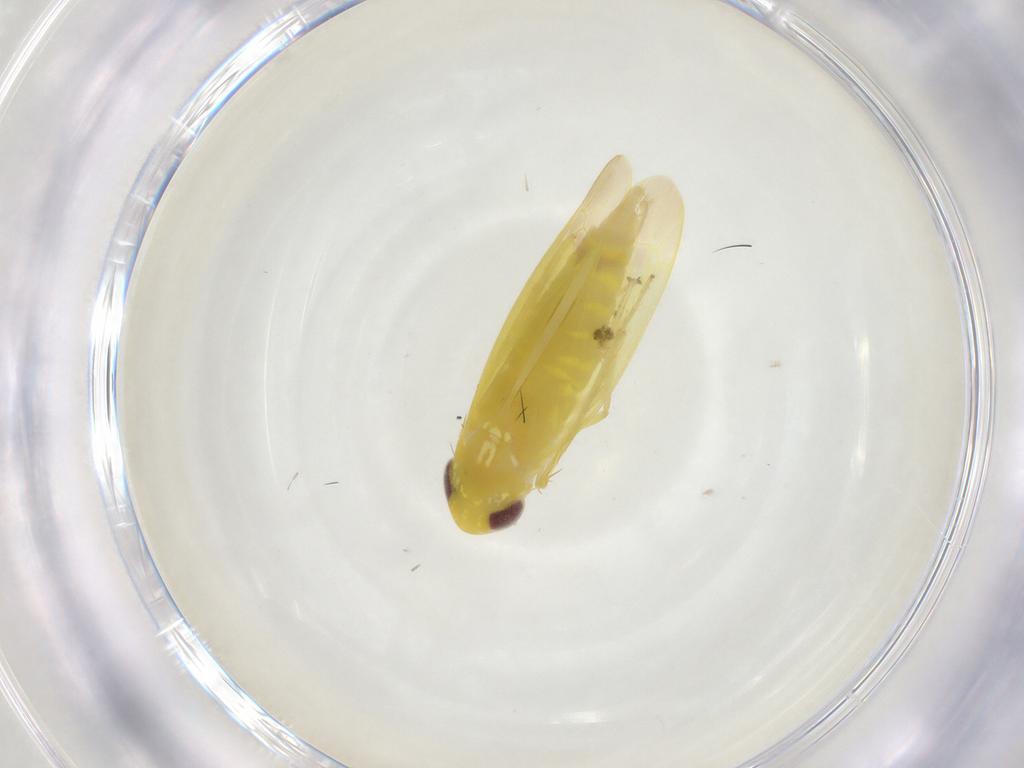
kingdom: Animalia
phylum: Arthropoda
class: Insecta
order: Hemiptera
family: Cicadellidae
